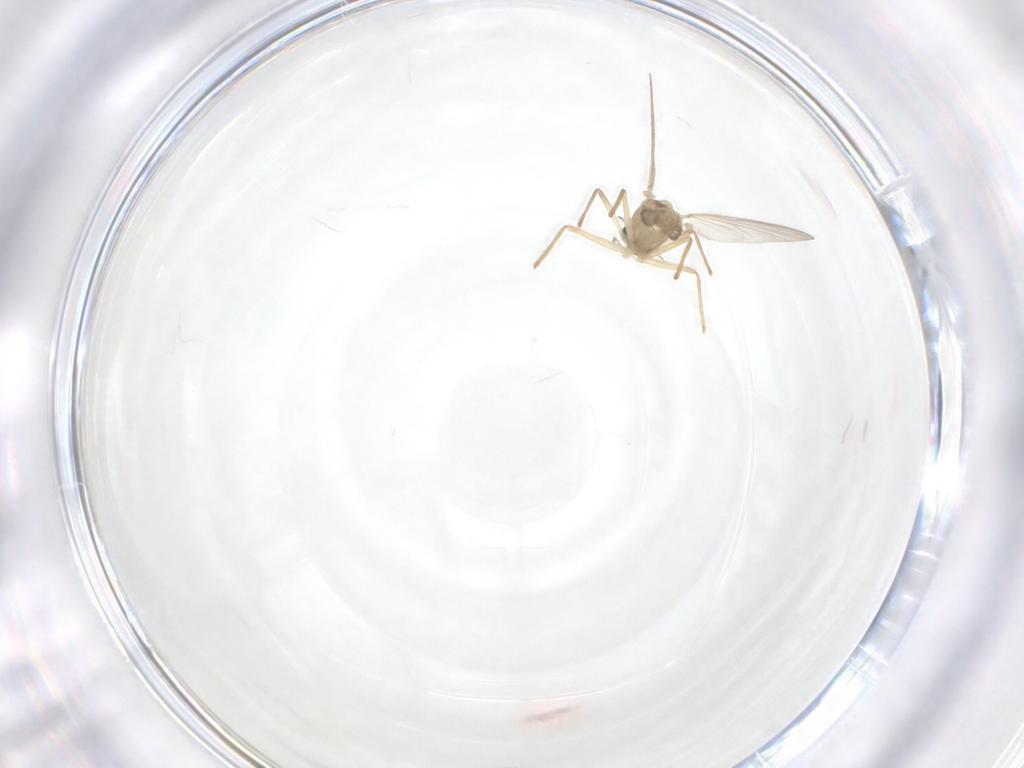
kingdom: Animalia
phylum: Arthropoda
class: Insecta
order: Diptera
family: Chironomidae
